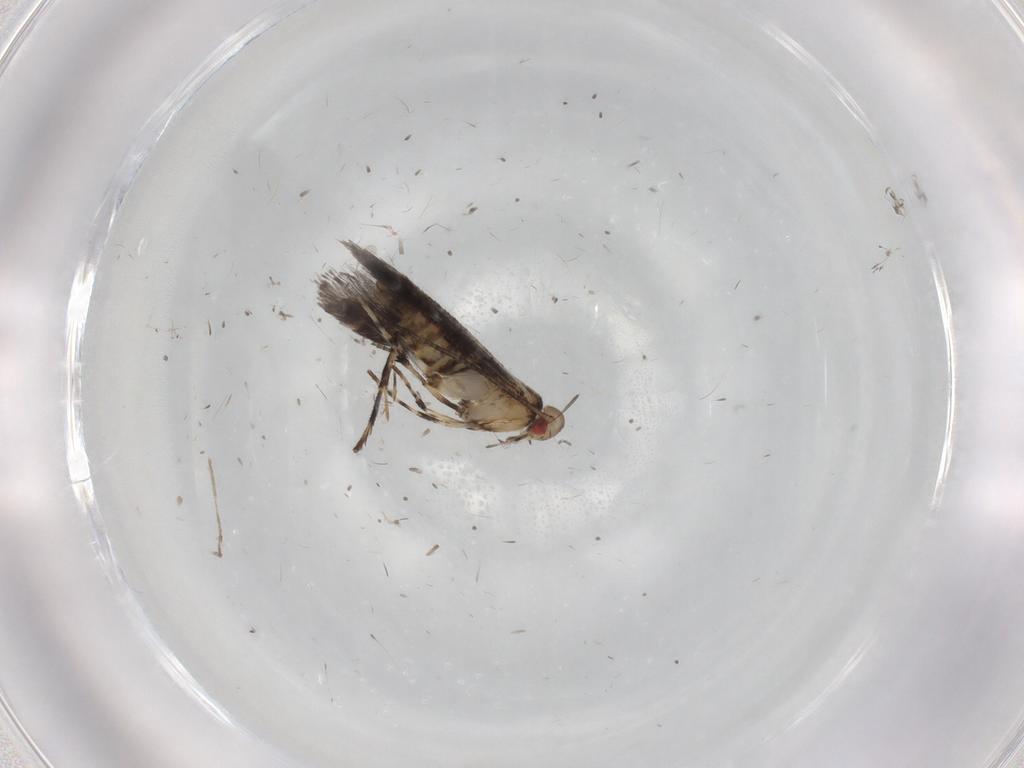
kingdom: Animalia
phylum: Arthropoda
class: Insecta
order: Lepidoptera
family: Gracillariidae
